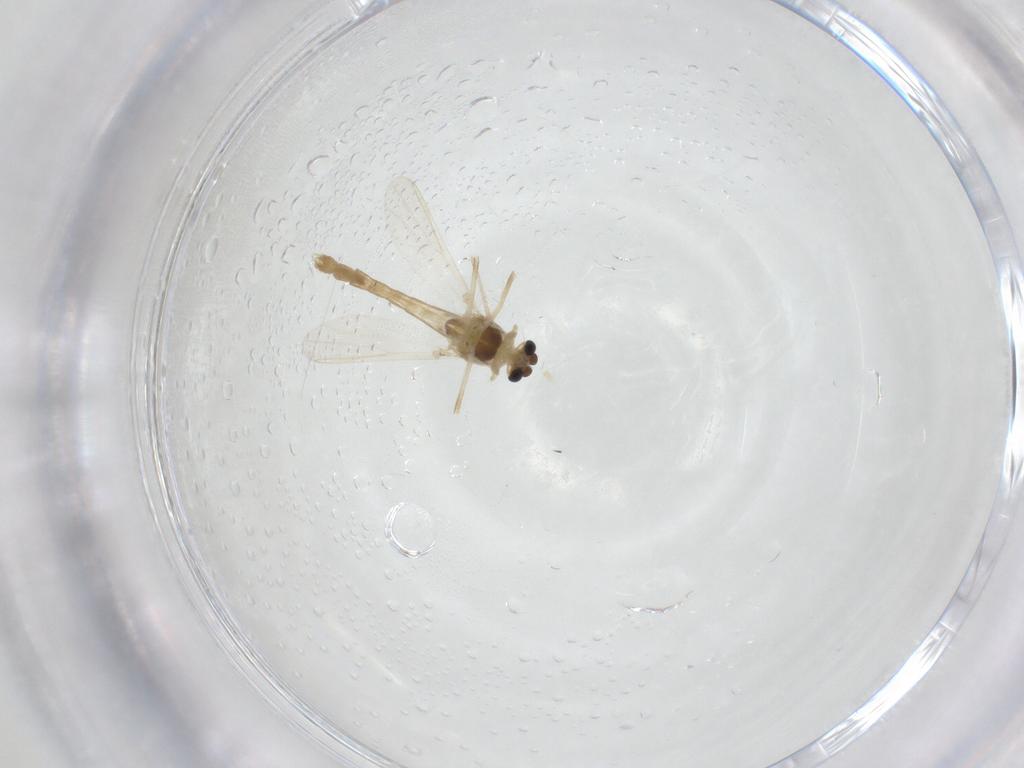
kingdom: Animalia
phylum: Arthropoda
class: Insecta
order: Diptera
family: Chironomidae
